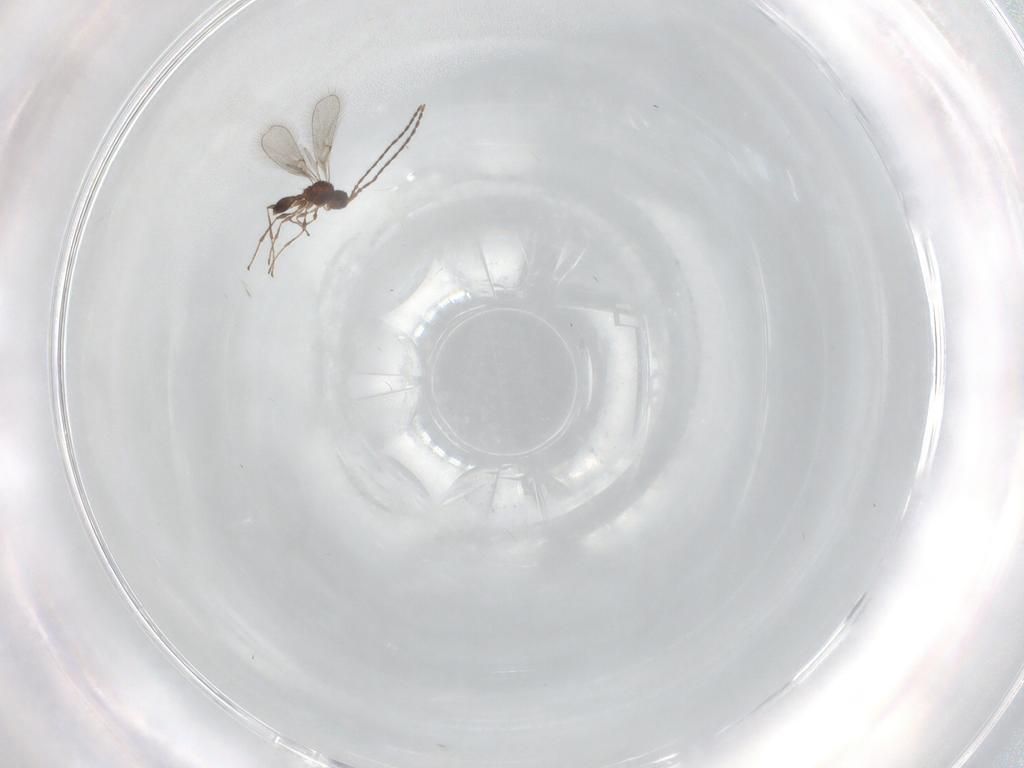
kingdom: Animalia
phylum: Arthropoda
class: Insecta
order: Hymenoptera
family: Diapriidae
